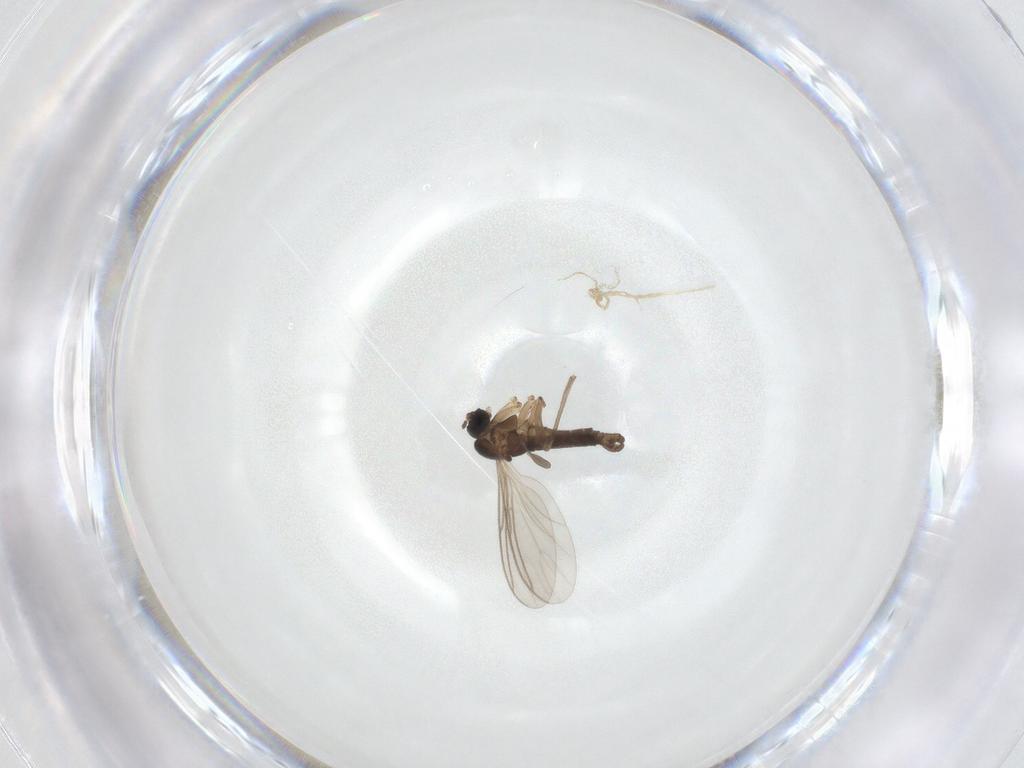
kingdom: Animalia
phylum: Arthropoda
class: Insecta
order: Diptera
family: Sciaridae
